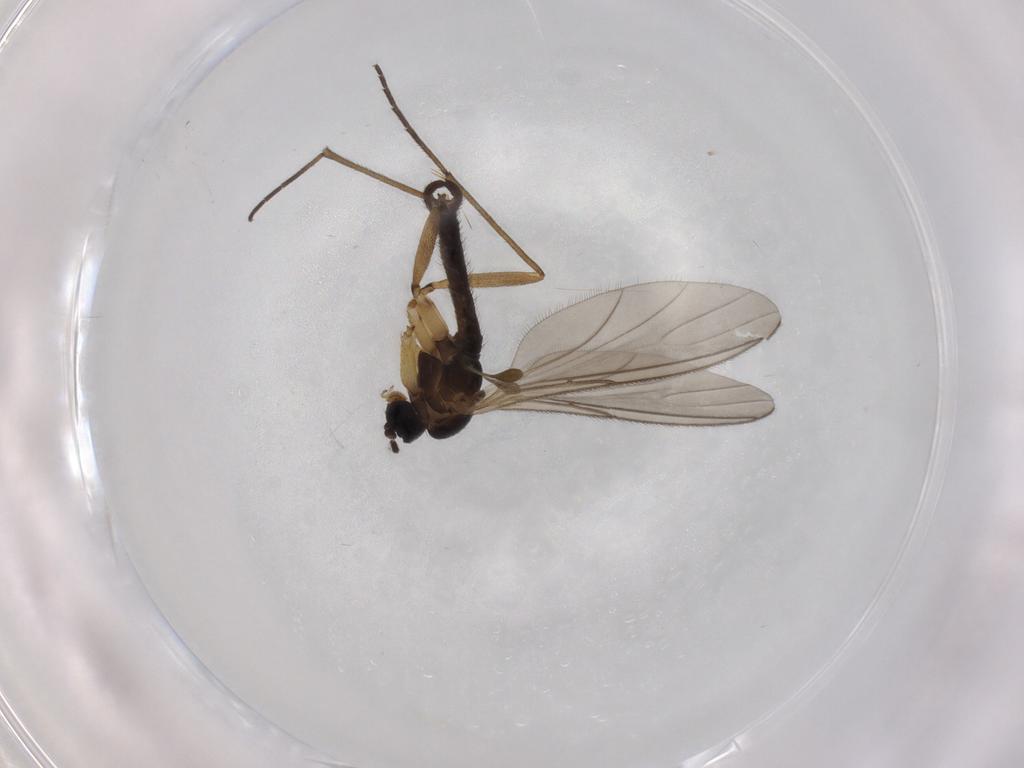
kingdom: Animalia
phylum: Arthropoda
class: Insecta
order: Diptera
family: Sciaridae
